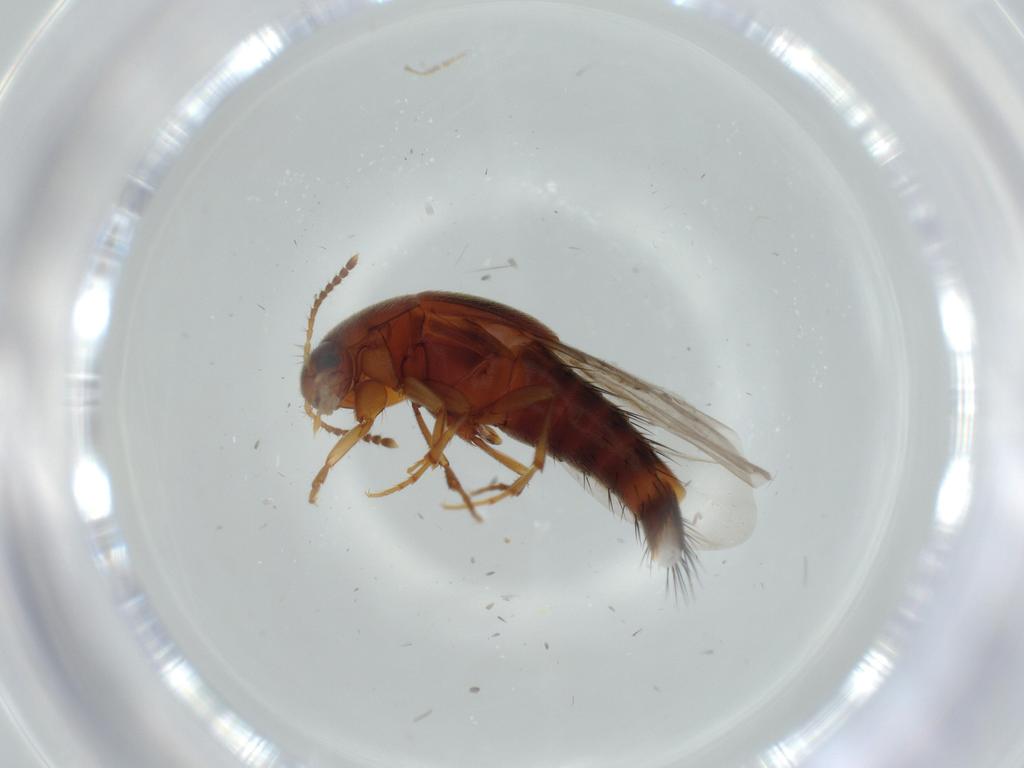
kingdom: Animalia
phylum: Arthropoda
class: Insecta
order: Coleoptera
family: Staphylinidae
